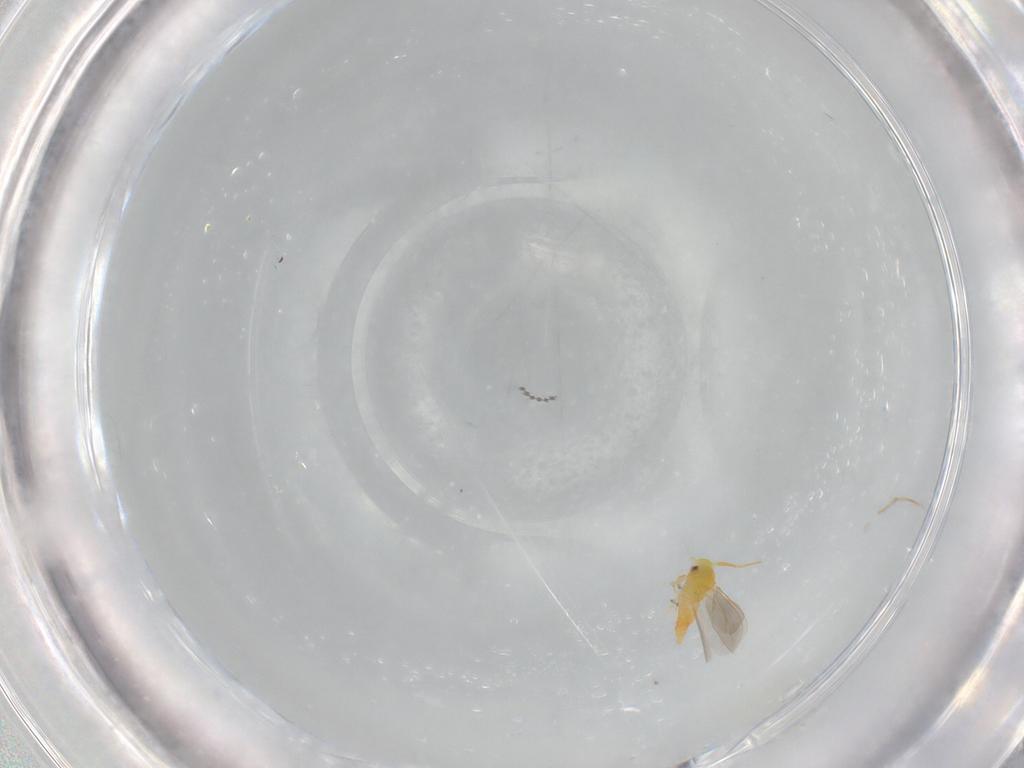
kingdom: Animalia
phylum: Arthropoda
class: Insecta
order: Hemiptera
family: Aleyrodidae
